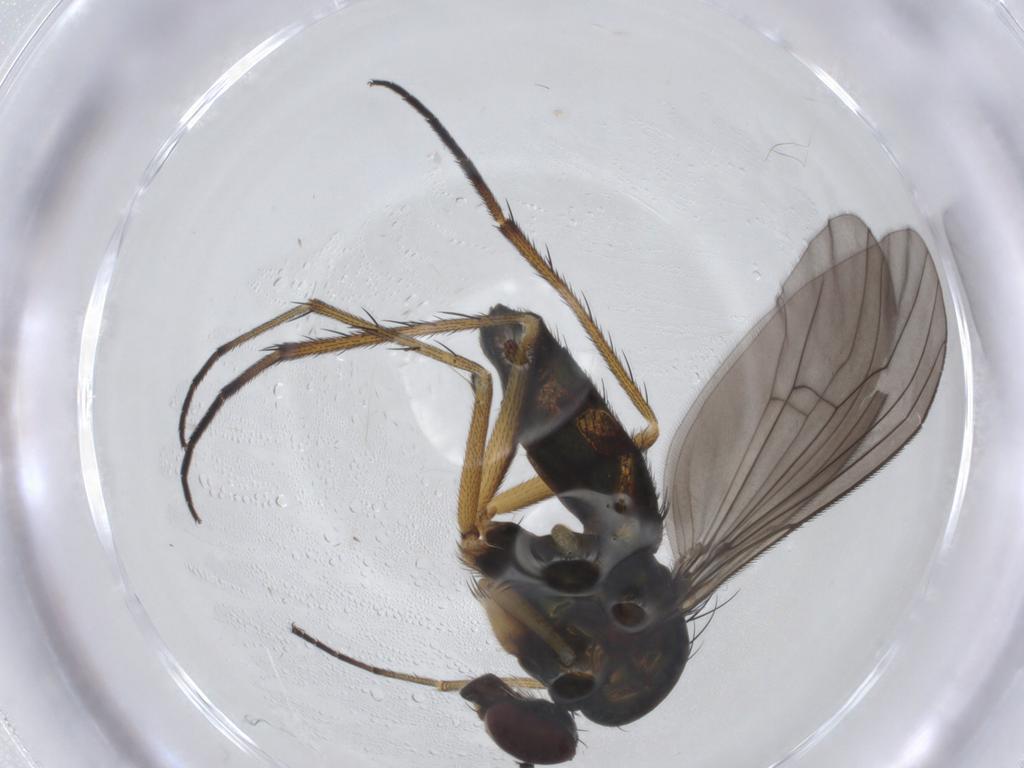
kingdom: Animalia
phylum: Arthropoda
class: Insecta
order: Diptera
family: Dolichopodidae
